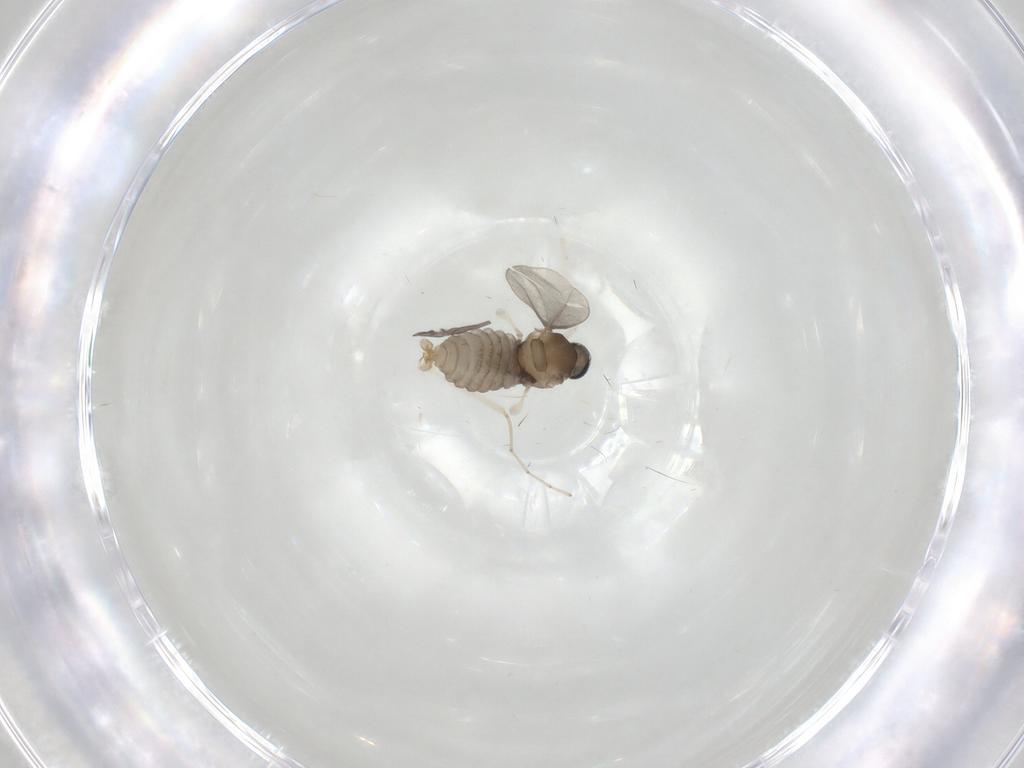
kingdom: Animalia
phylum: Arthropoda
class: Insecta
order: Diptera
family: Cecidomyiidae
